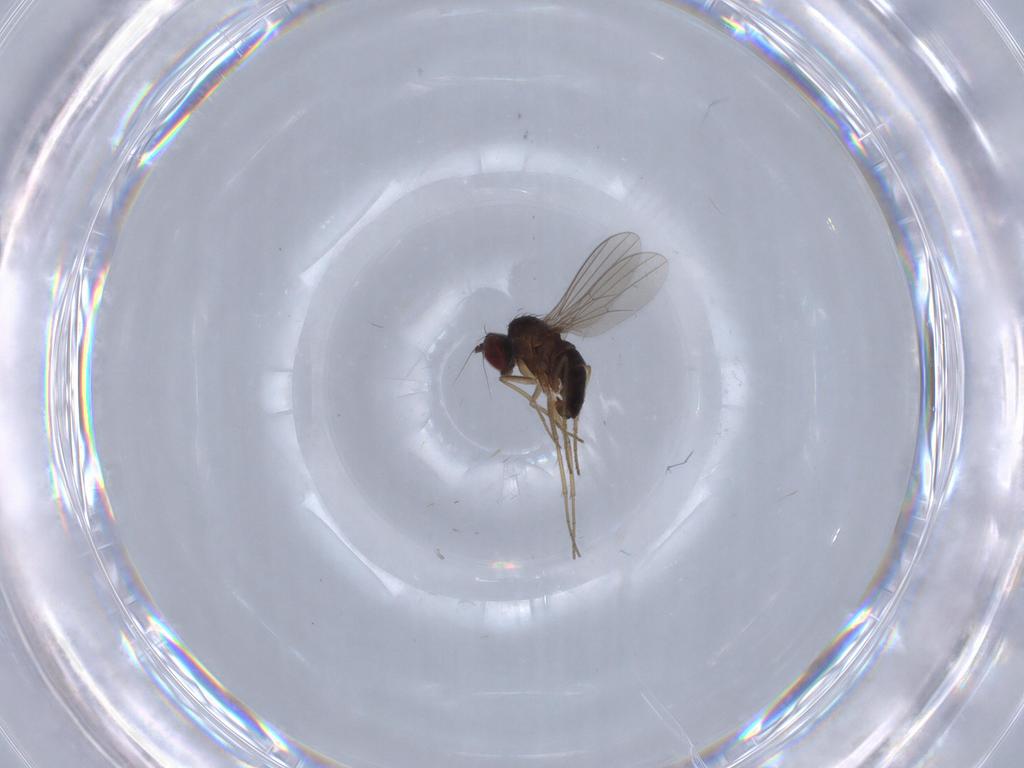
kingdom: Animalia
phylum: Arthropoda
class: Insecta
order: Diptera
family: Dolichopodidae
